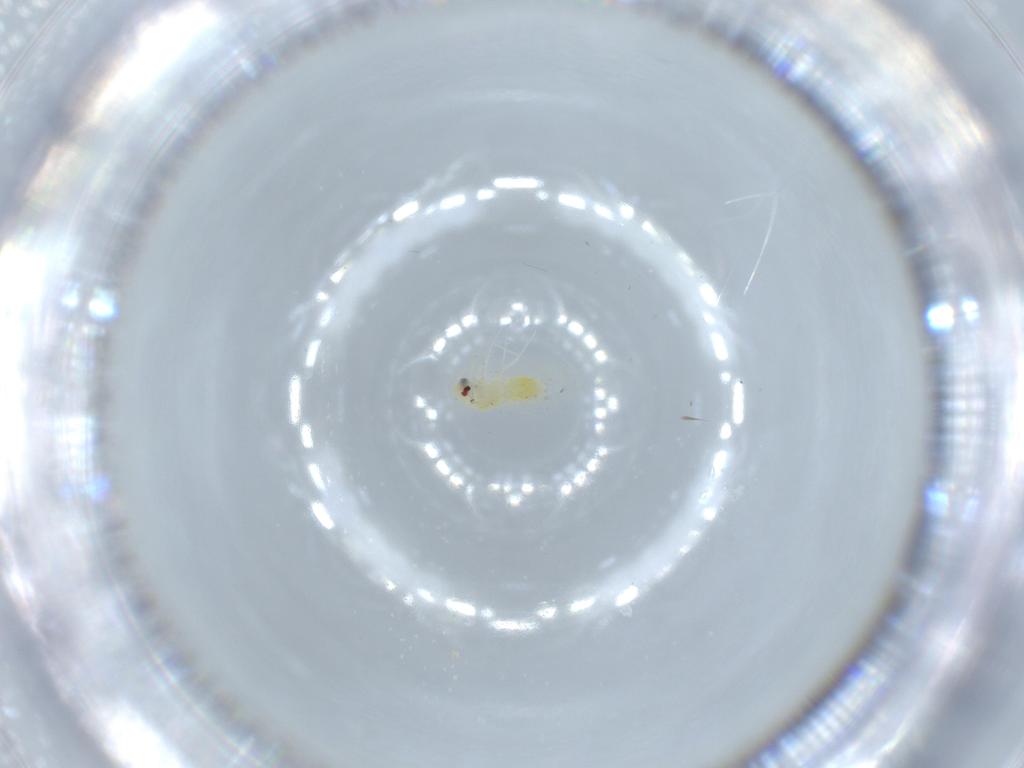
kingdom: Animalia
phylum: Arthropoda
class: Insecta
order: Hemiptera
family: Aleyrodidae
